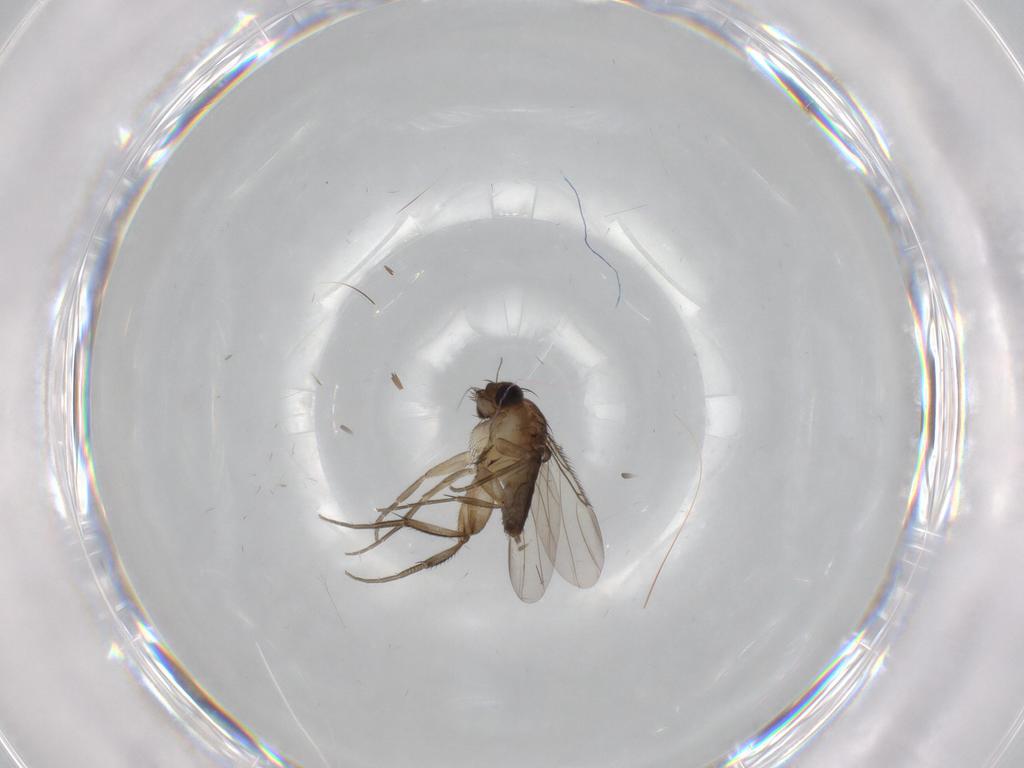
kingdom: Animalia
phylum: Arthropoda
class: Insecta
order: Diptera
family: Phoridae
